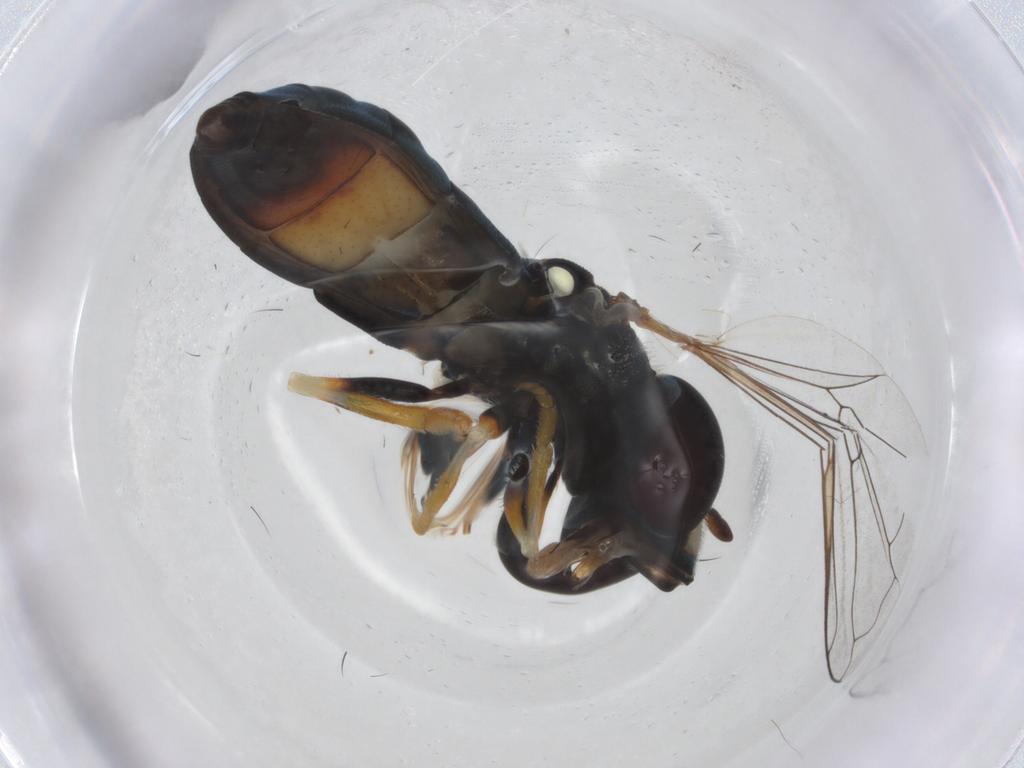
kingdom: Animalia
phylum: Arthropoda
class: Insecta
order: Diptera
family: Syrphidae
